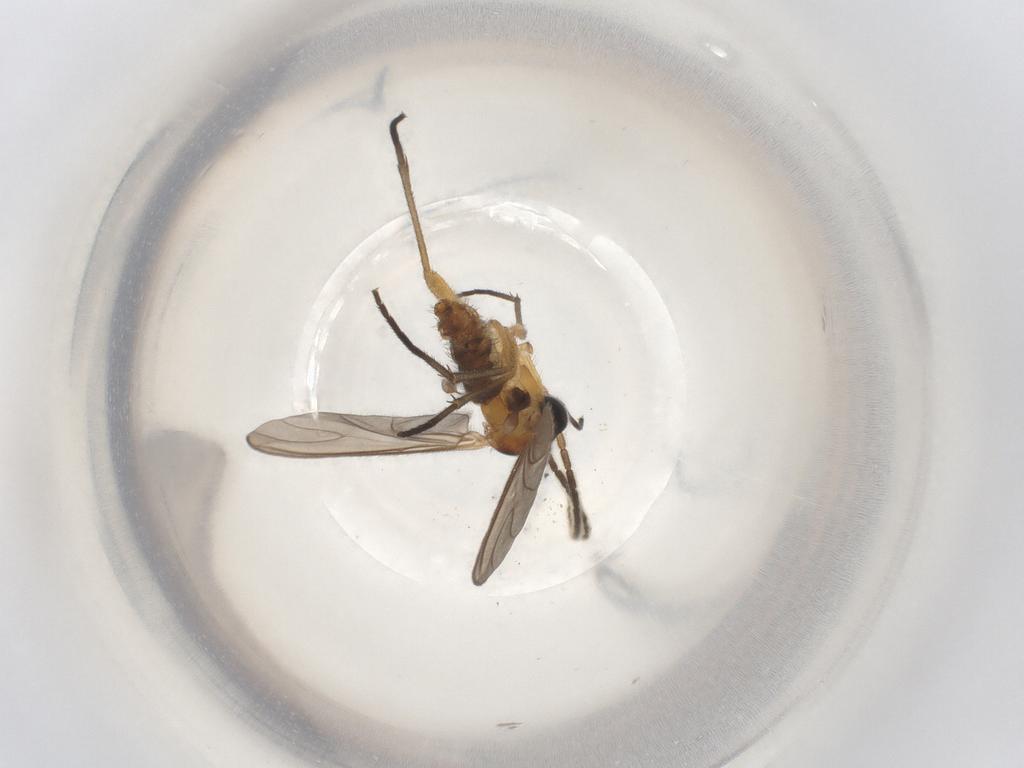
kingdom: Animalia
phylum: Arthropoda
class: Insecta
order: Diptera
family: Sciaridae
